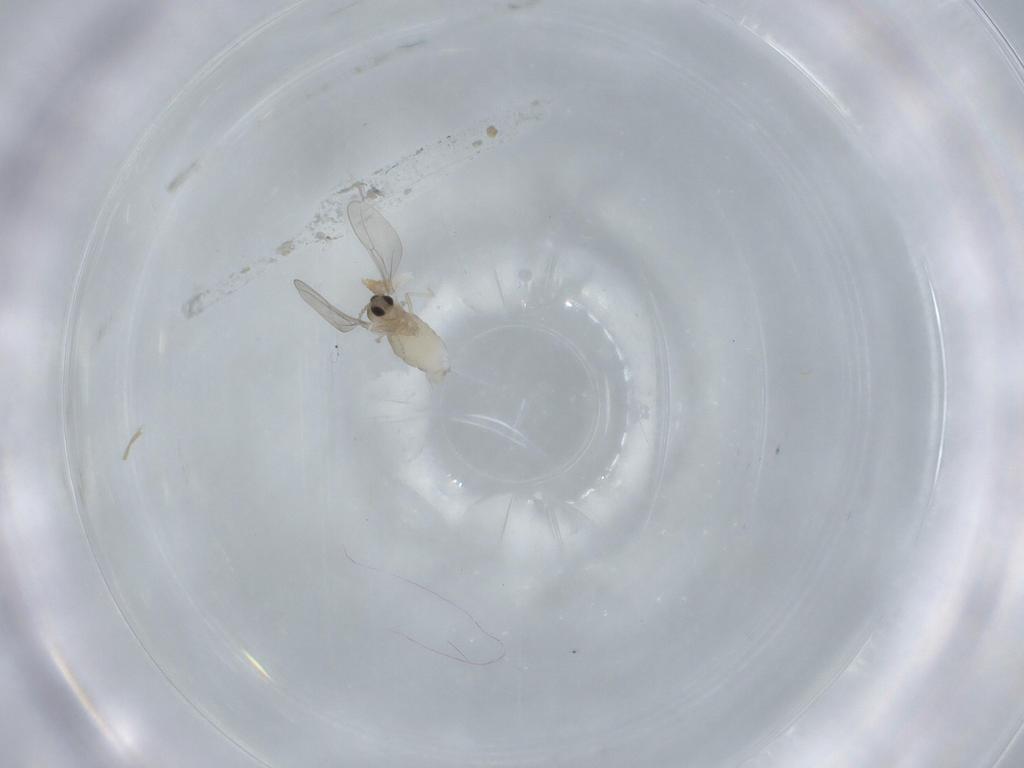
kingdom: Animalia
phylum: Arthropoda
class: Insecta
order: Diptera
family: Cecidomyiidae
